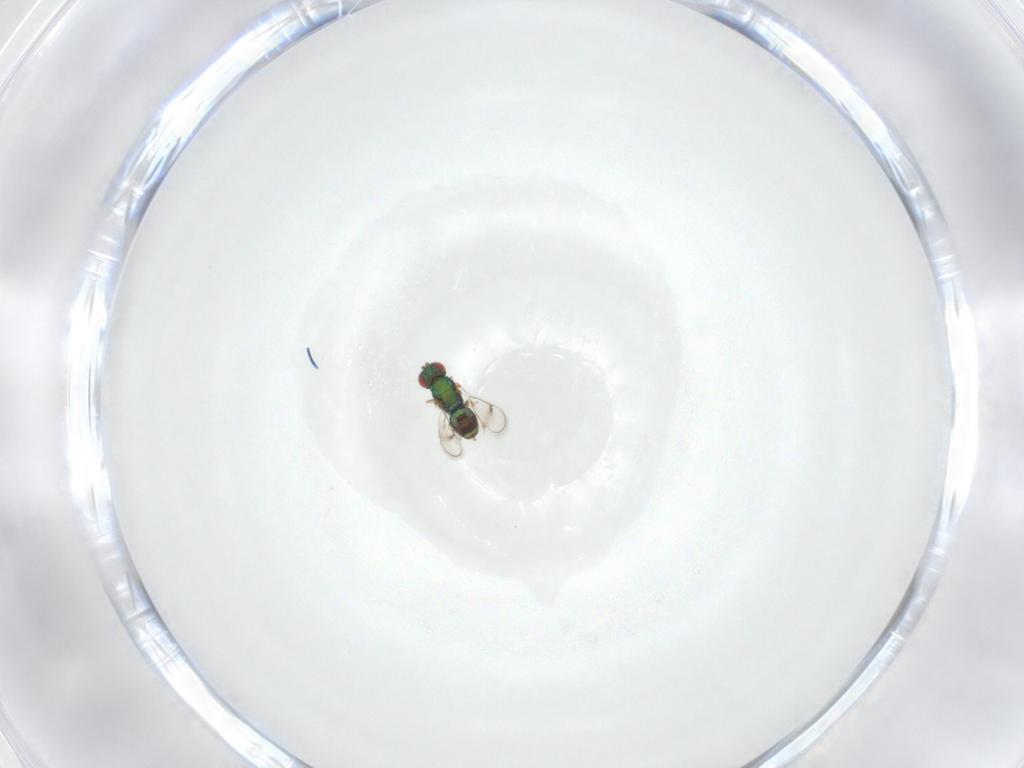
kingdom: Animalia
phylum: Arthropoda
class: Insecta
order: Hymenoptera
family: Eulophidae
